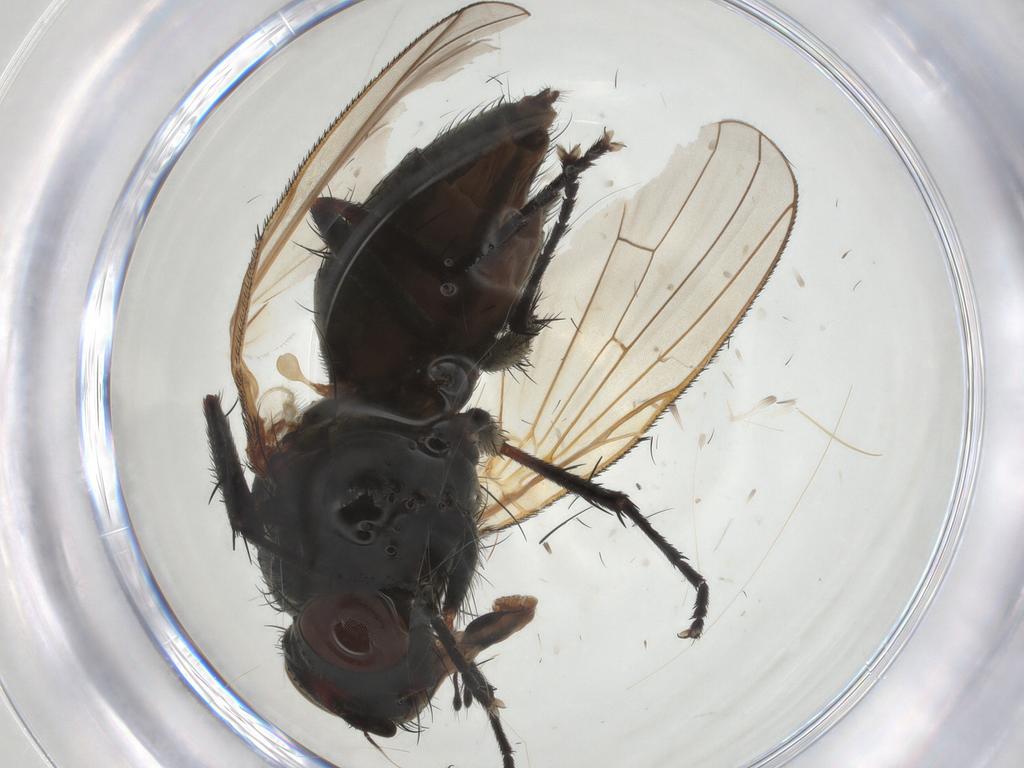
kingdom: Animalia
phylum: Arthropoda
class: Insecta
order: Diptera
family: Anthomyiidae
